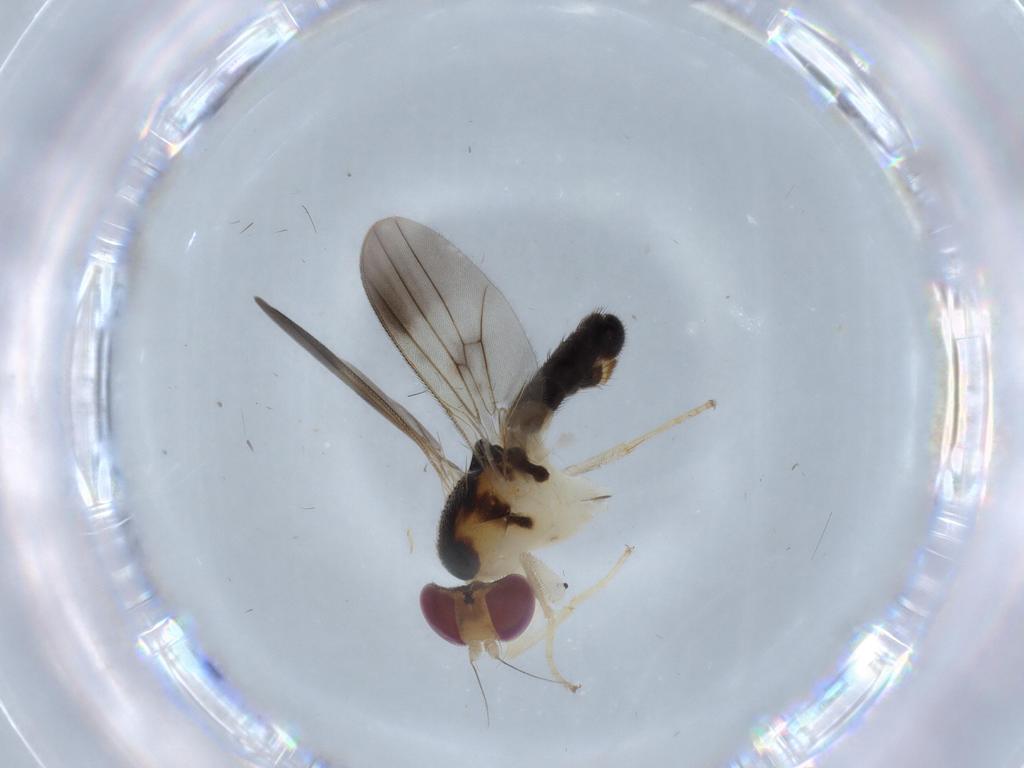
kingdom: Animalia
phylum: Arthropoda
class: Insecta
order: Diptera
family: Clusiidae
